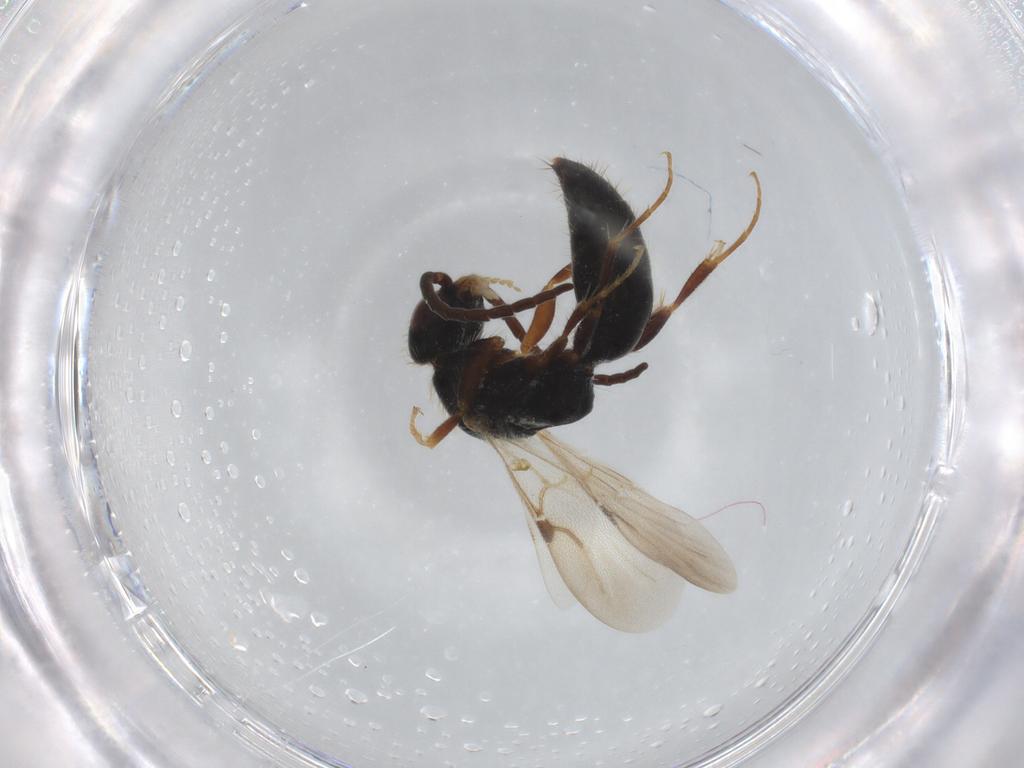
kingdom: Animalia
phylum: Arthropoda
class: Insecta
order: Hymenoptera
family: Bethylidae
